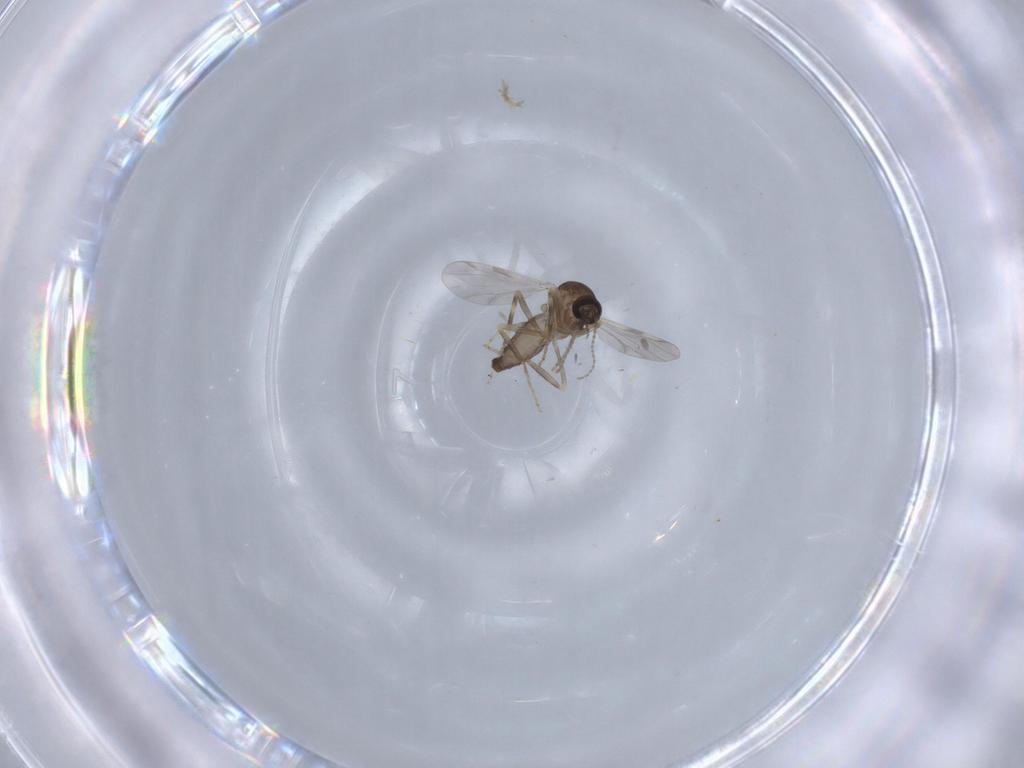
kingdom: Animalia
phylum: Arthropoda
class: Insecta
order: Diptera
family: Ceratopogonidae
